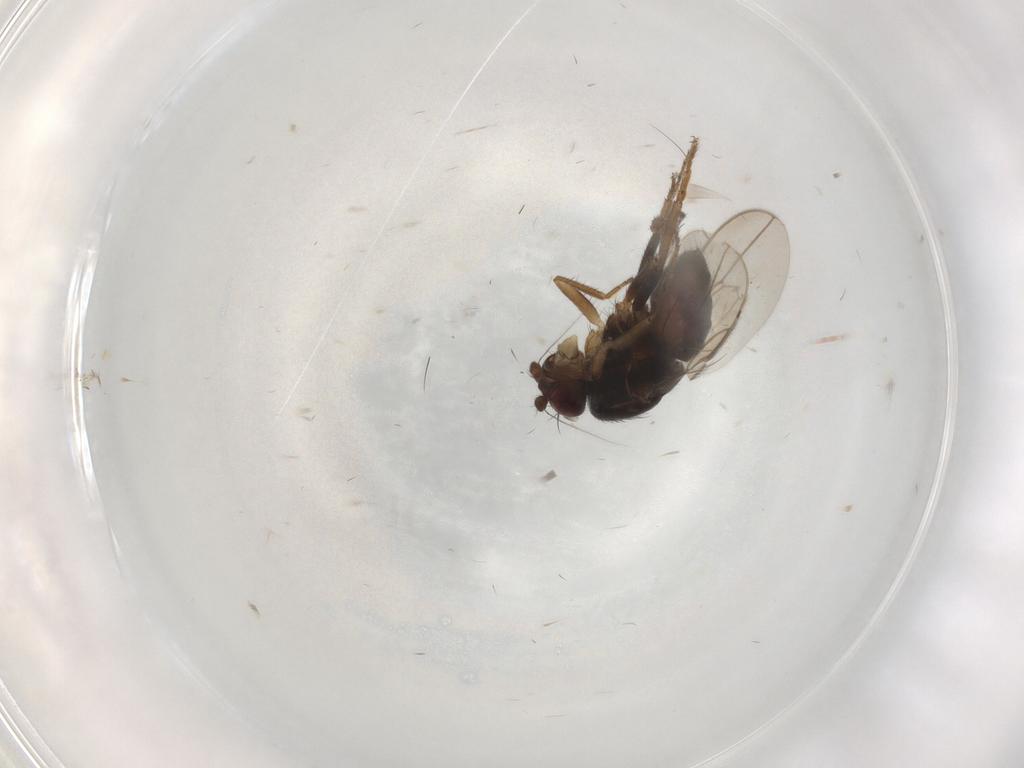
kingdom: Animalia
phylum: Arthropoda
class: Insecta
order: Diptera
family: Sphaeroceridae
